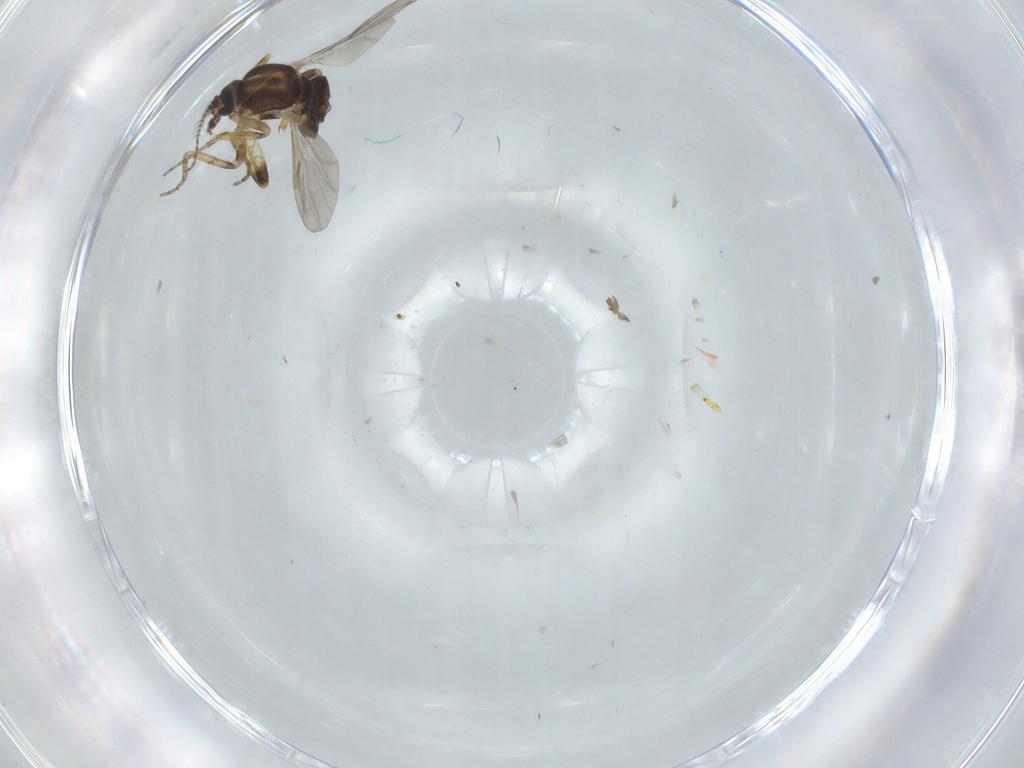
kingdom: Animalia
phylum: Arthropoda
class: Insecta
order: Diptera
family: Ceratopogonidae
